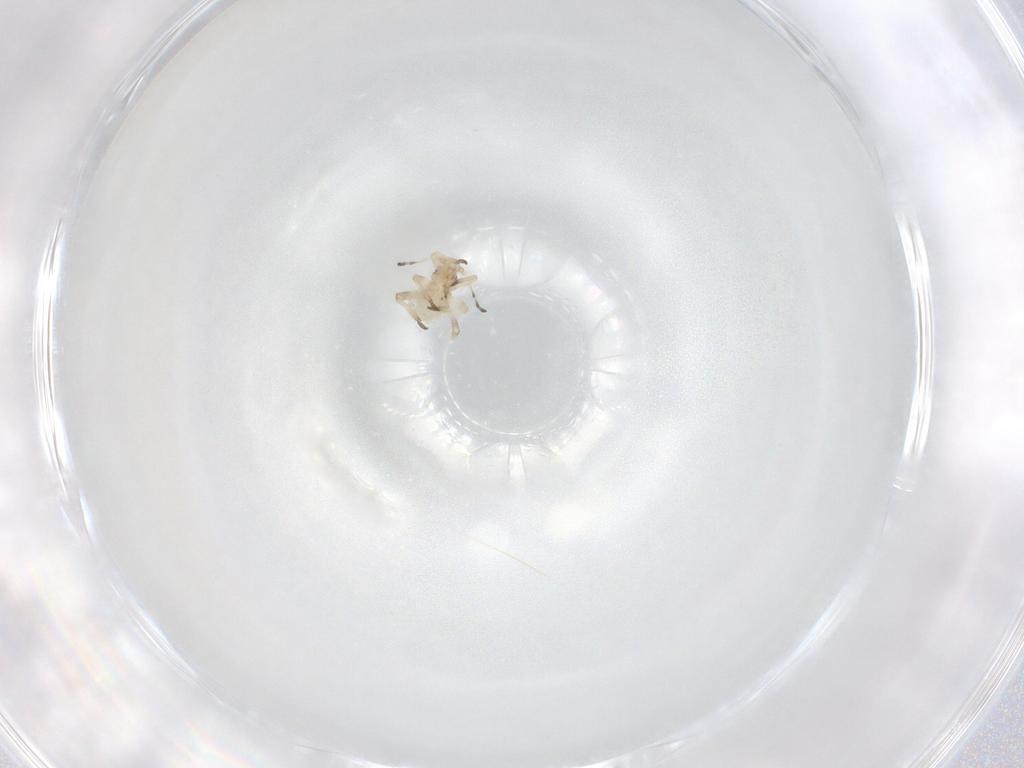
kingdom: Animalia
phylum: Arthropoda
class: Insecta
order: Hemiptera
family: Aphididae
